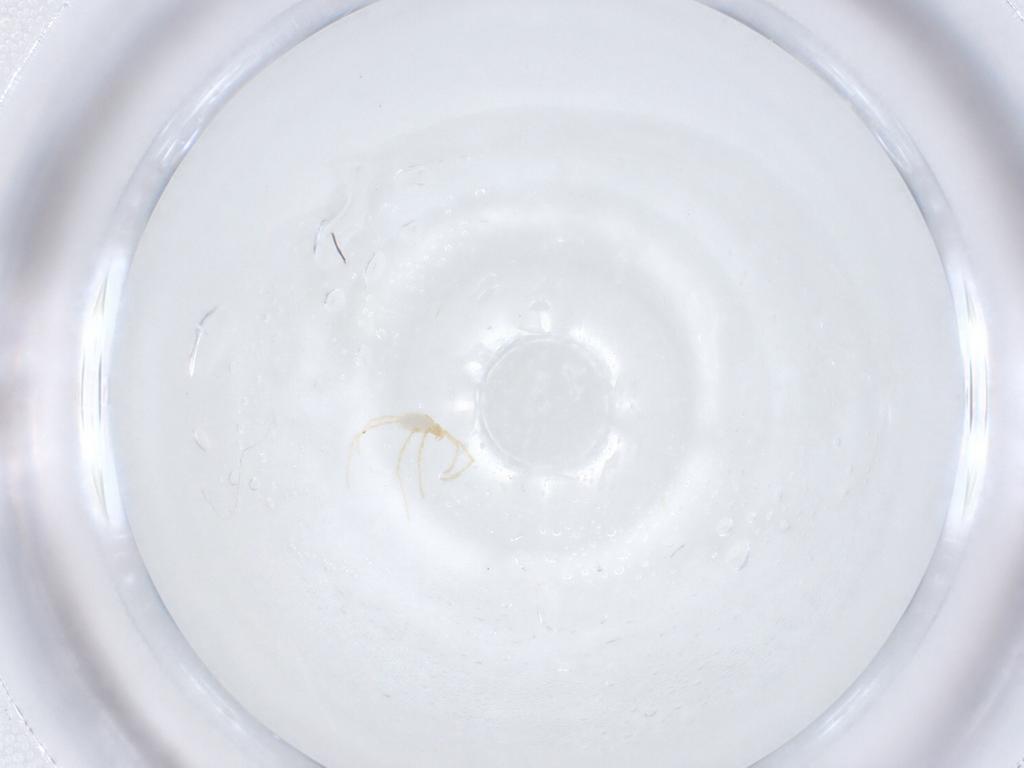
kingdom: Animalia
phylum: Arthropoda
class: Arachnida
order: Trombidiformes
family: Erythraeidae
